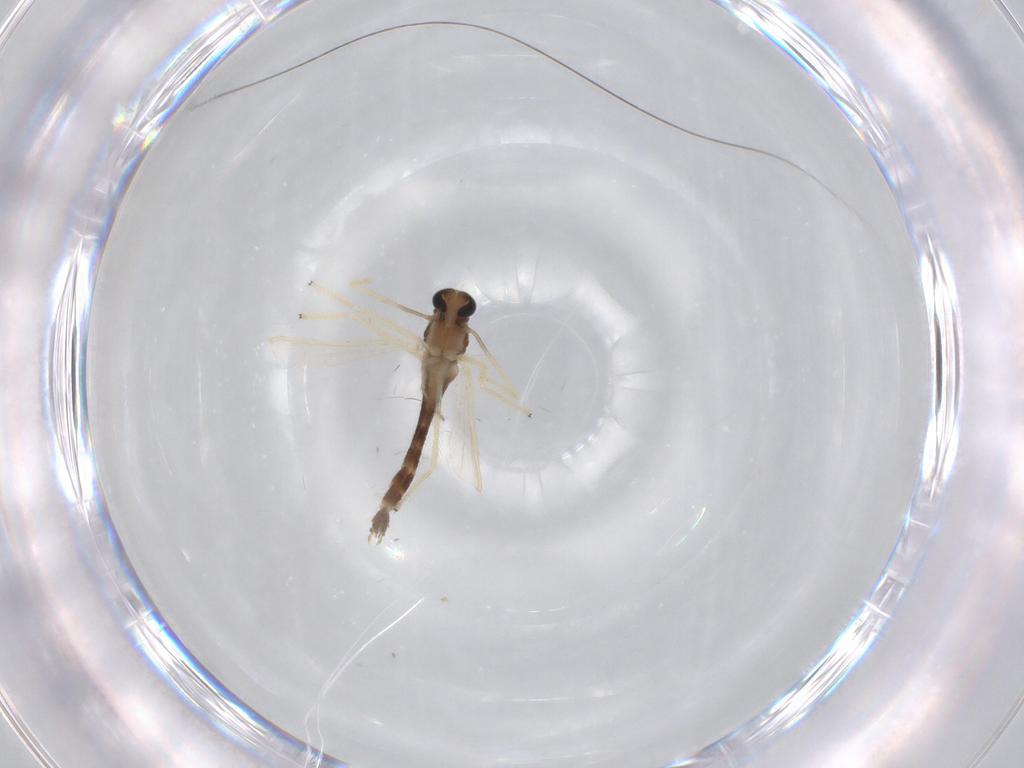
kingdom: Animalia
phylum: Arthropoda
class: Insecta
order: Diptera
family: Chironomidae
